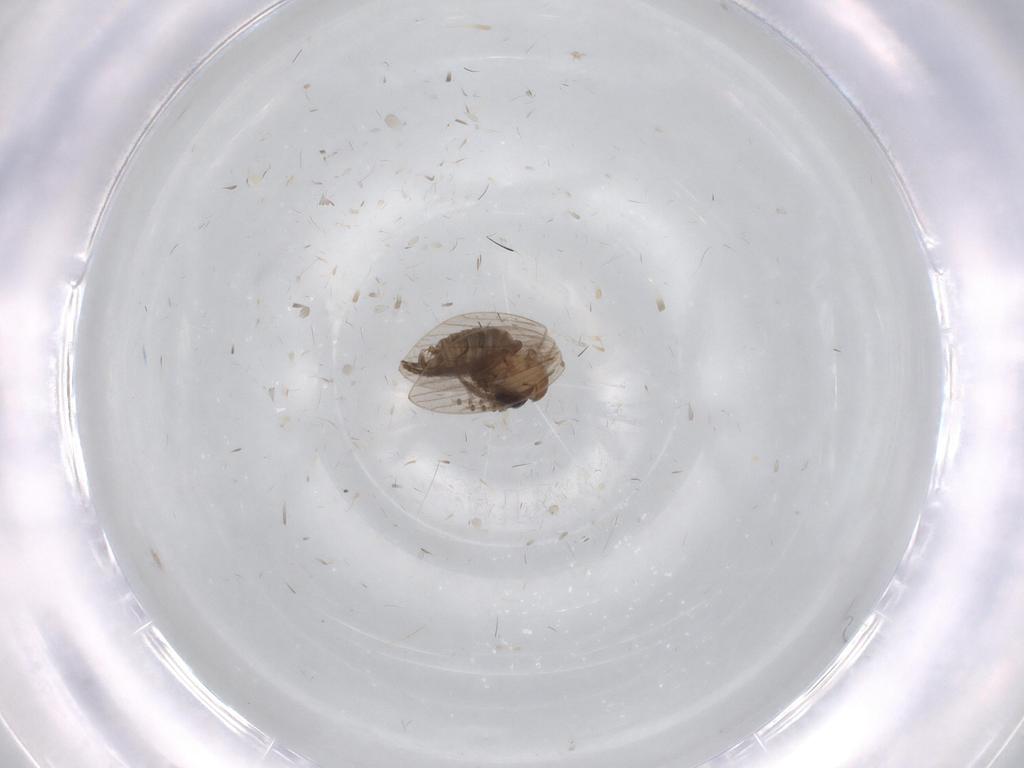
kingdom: Animalia
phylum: Arthropoda
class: Insecta
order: Diptera
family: Psychodidae
